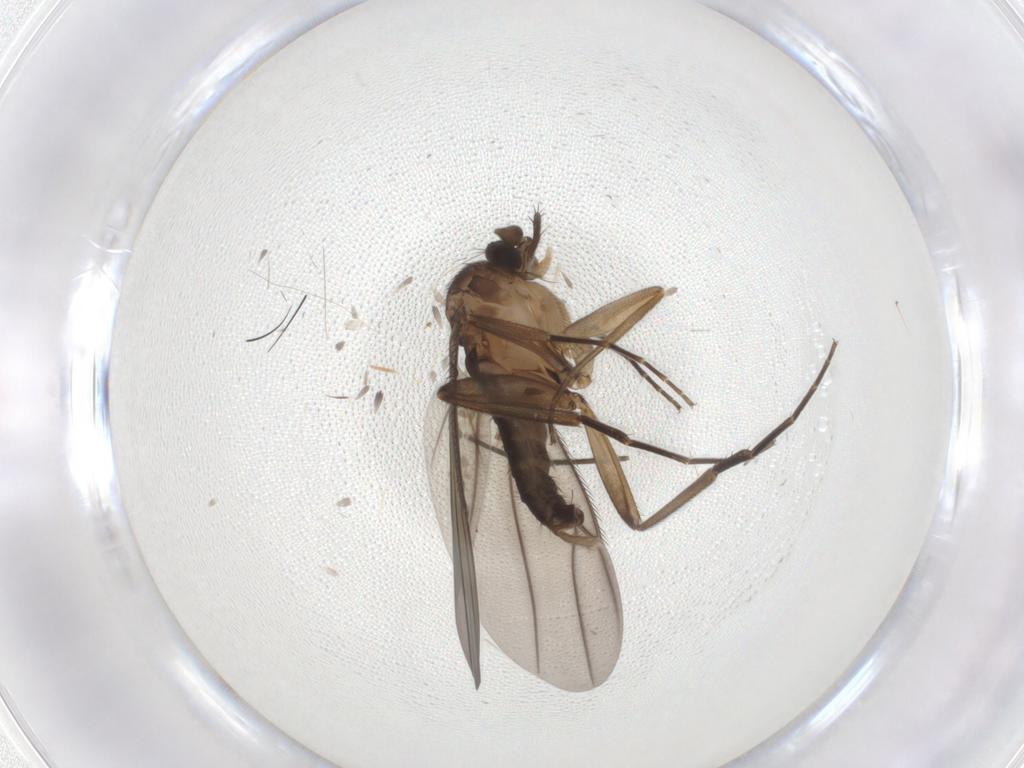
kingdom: Animalia
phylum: Arthropoda
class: Insecta
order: Diptera
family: Phoridae
